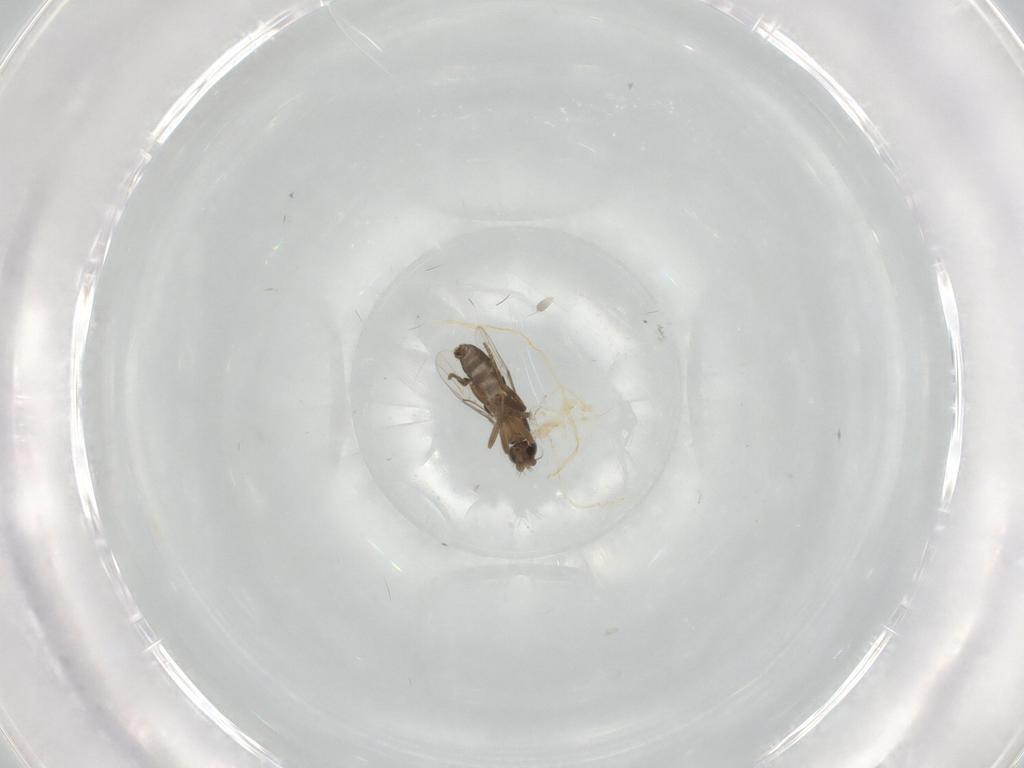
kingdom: Animalia
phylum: Arthropoda
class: Insecta
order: Diptera
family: Phoridae
